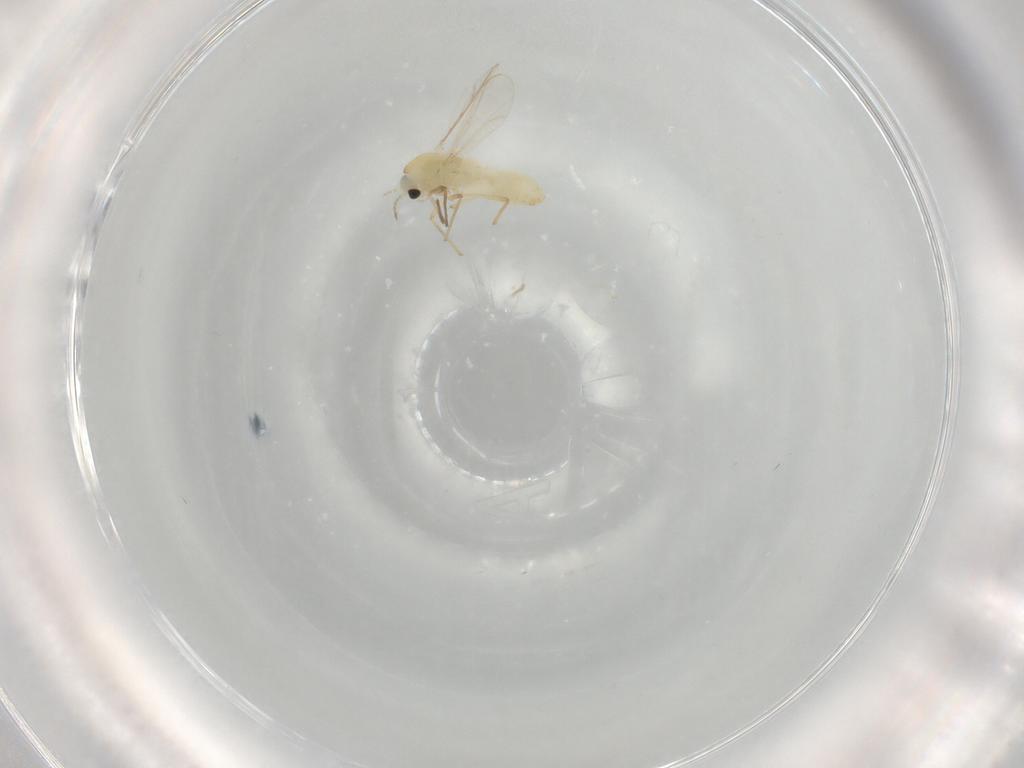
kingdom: Animalia
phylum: Arthropoda
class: Insecta
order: Diptera
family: Chironomidae
